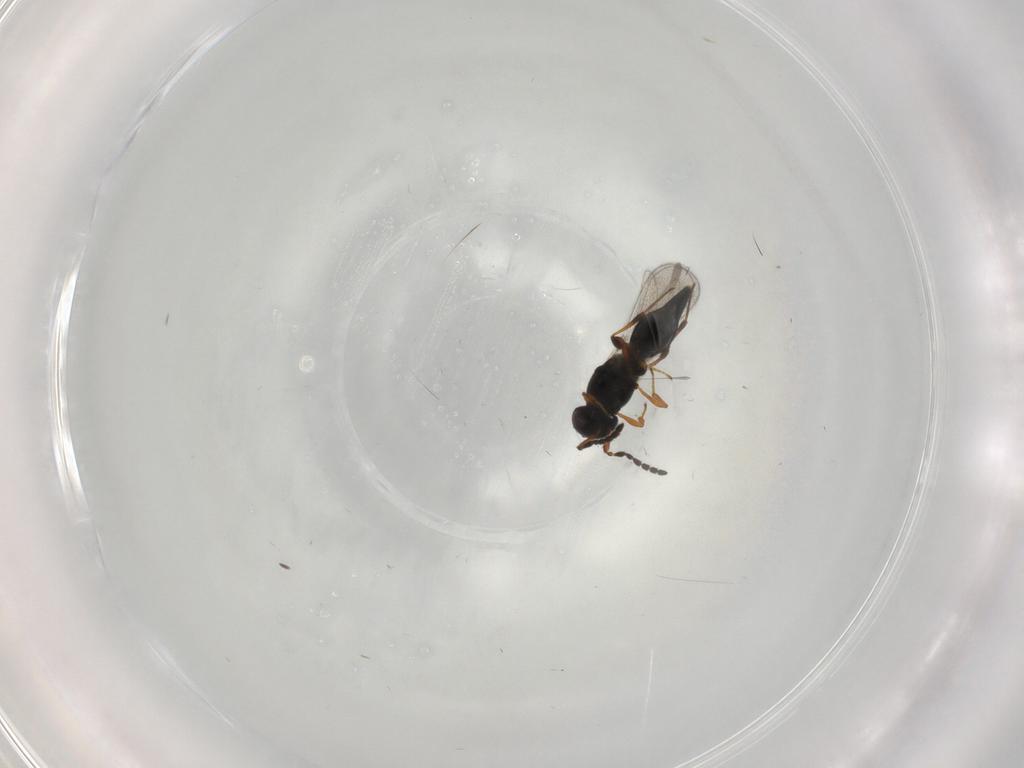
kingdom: Animalia
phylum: Arthropoda
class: Insecta
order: Hymenoptera
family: Platygastridae
